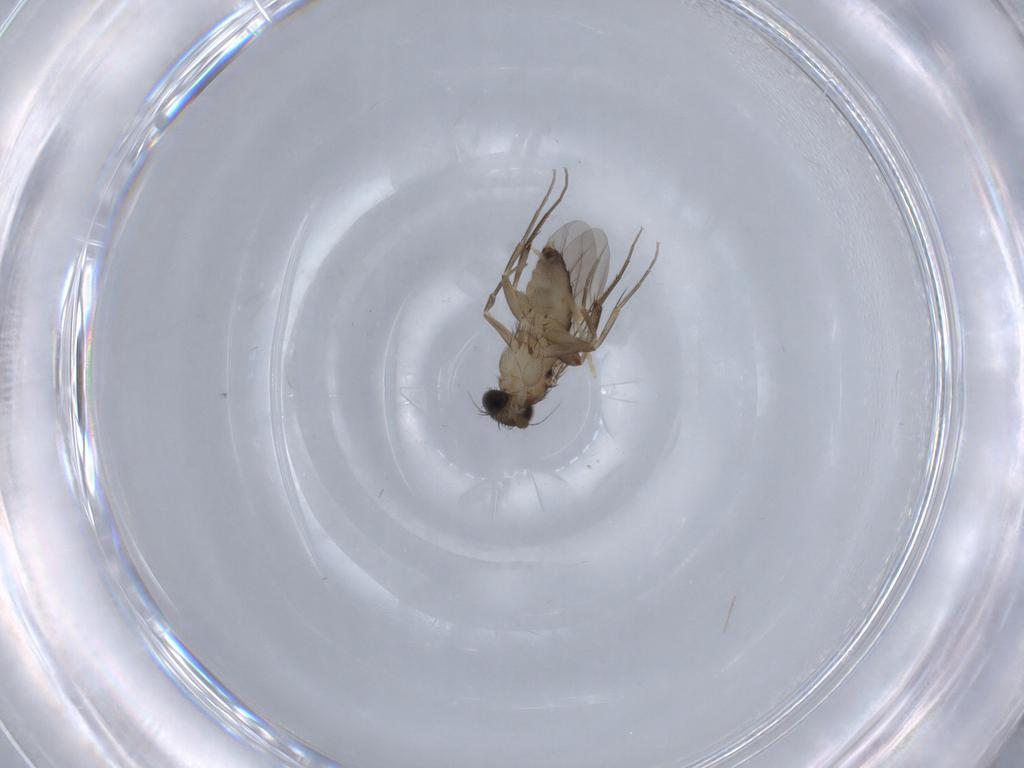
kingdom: Animalia
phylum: Arthropoda
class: Insecta
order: Diptera
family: Phoridae
